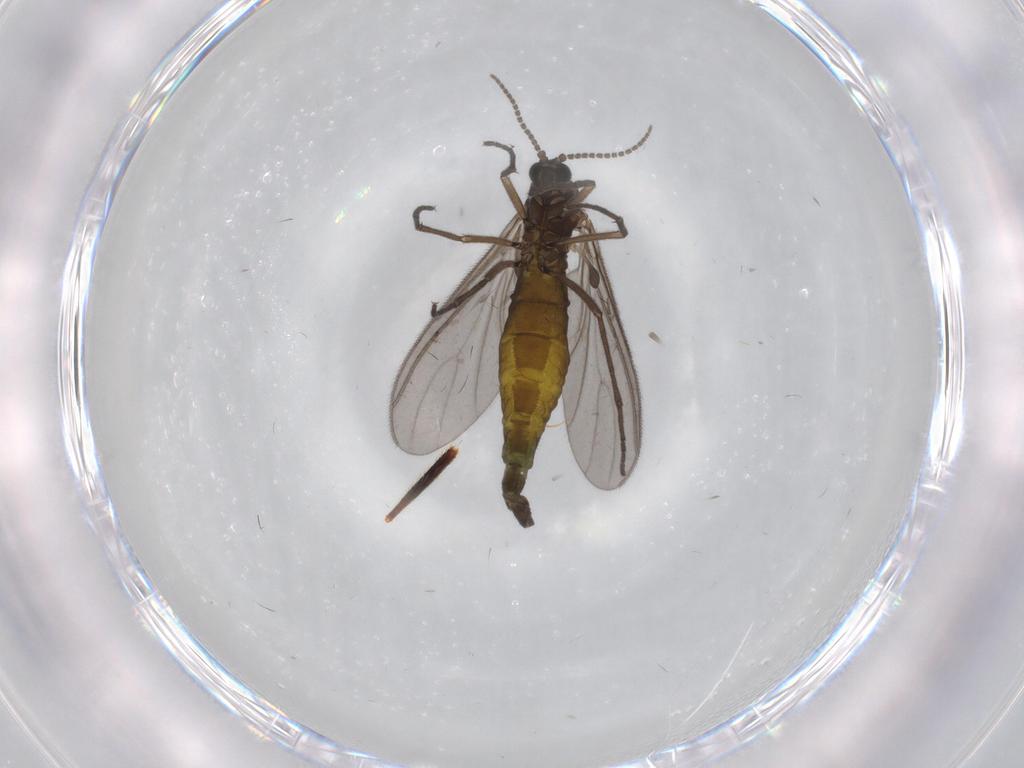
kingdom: Animalia
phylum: Arthropoda
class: Insecta
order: Diptera
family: Sciaridae
